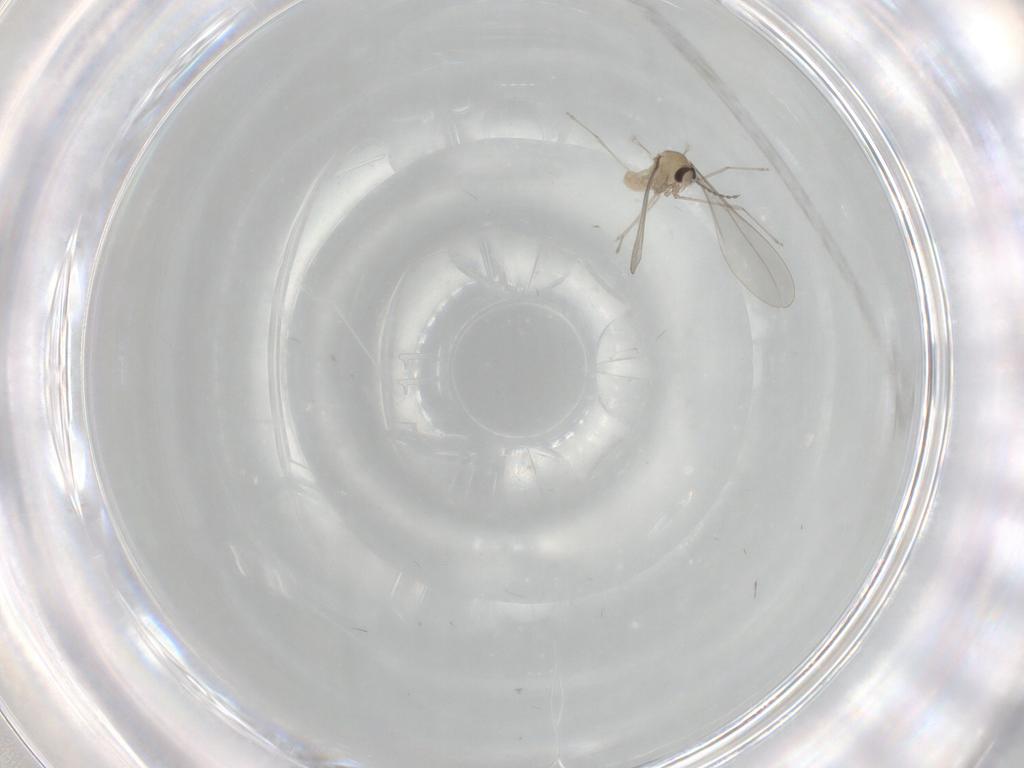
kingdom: Animalia
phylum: Arthropoda
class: Insecta
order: Diptera
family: Cecidomyiidae
